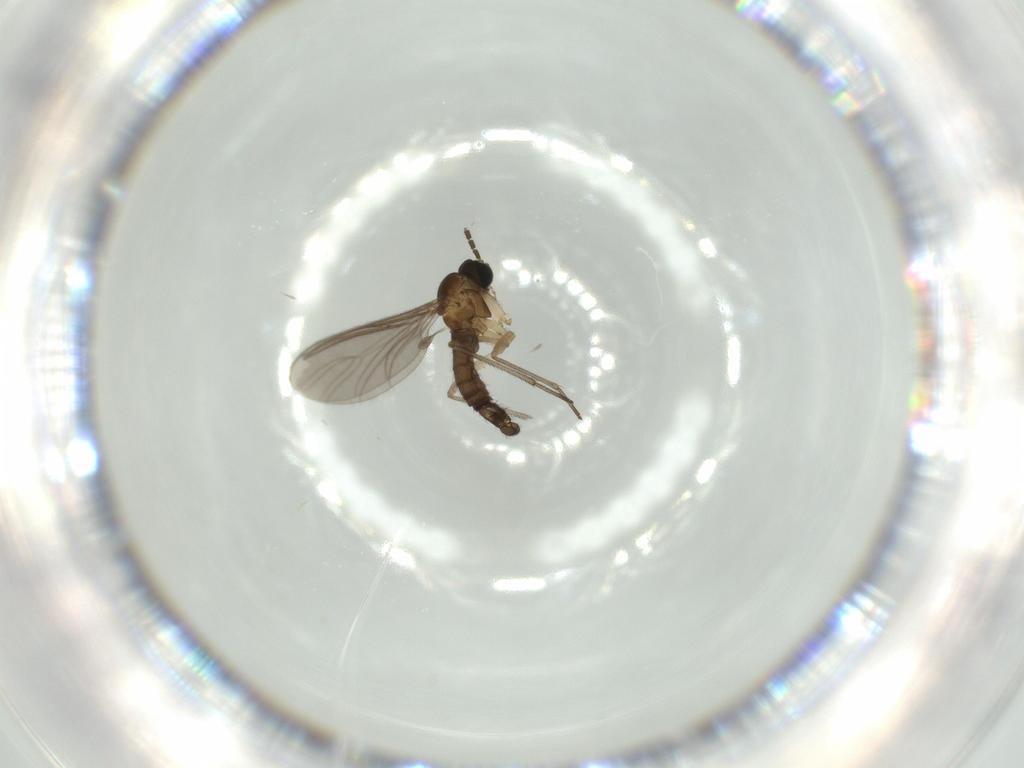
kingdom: Animalia
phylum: Arthropoda
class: Insecta
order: Diptera
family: Sciaridae
